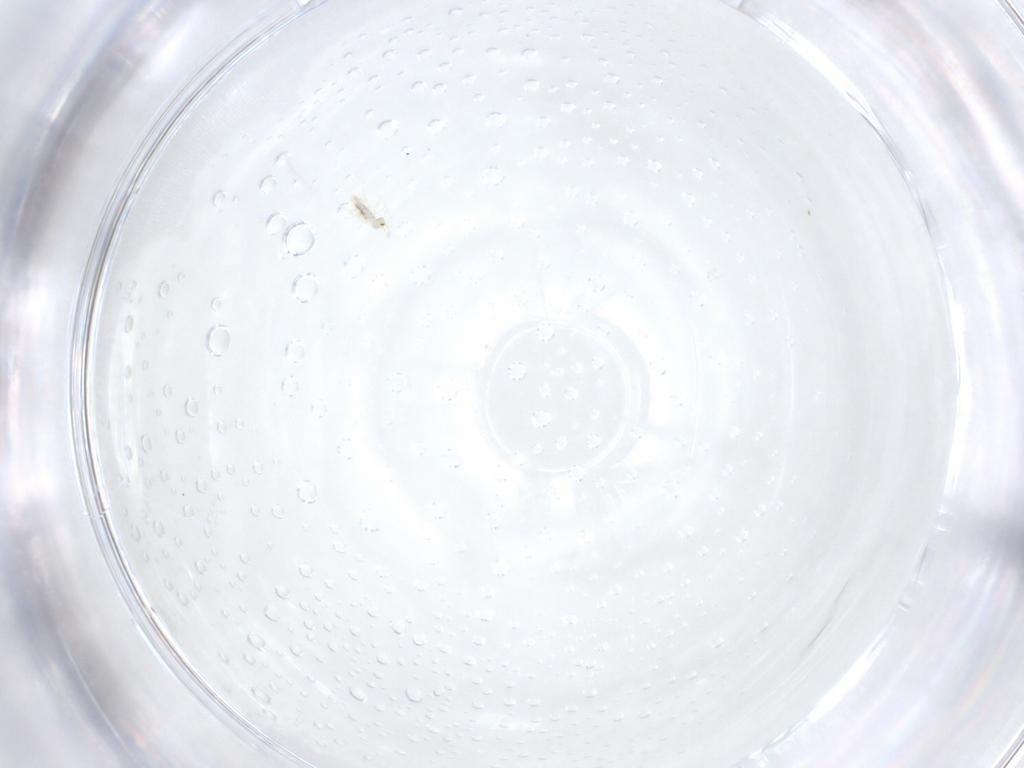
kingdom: Animalia
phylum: Arthropoda
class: Collembola
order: Entomobryomorpha
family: Entomobryidae
